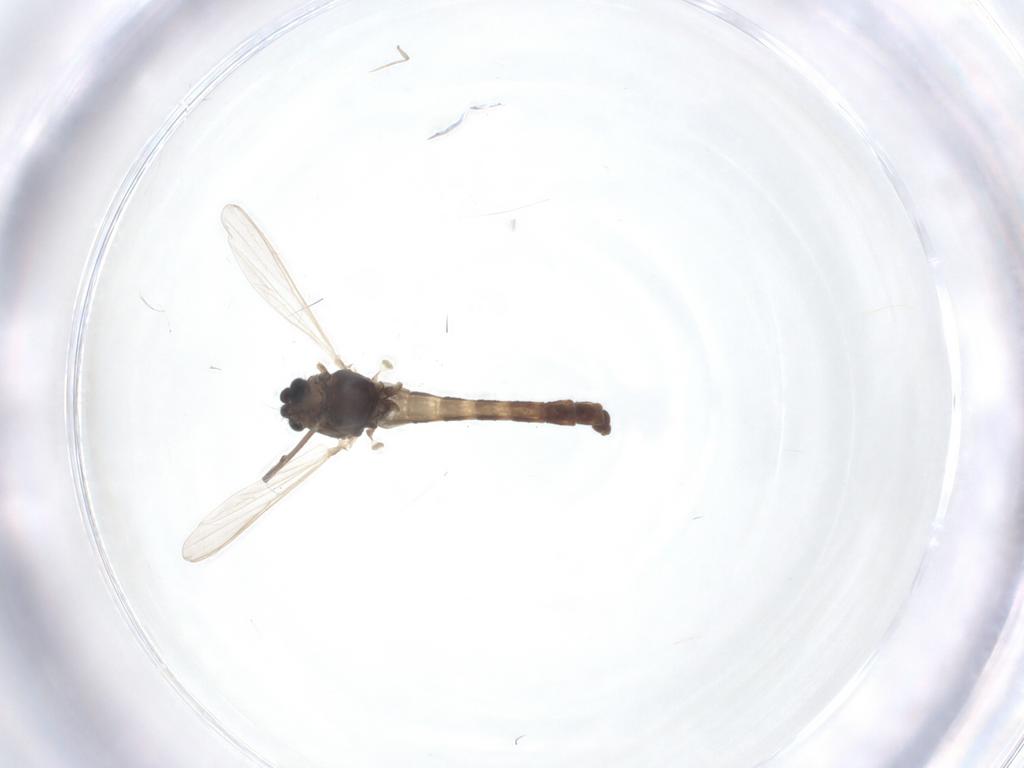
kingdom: Animalia
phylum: Arthropoda
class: Insecta
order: Diptera
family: Chironomidae
